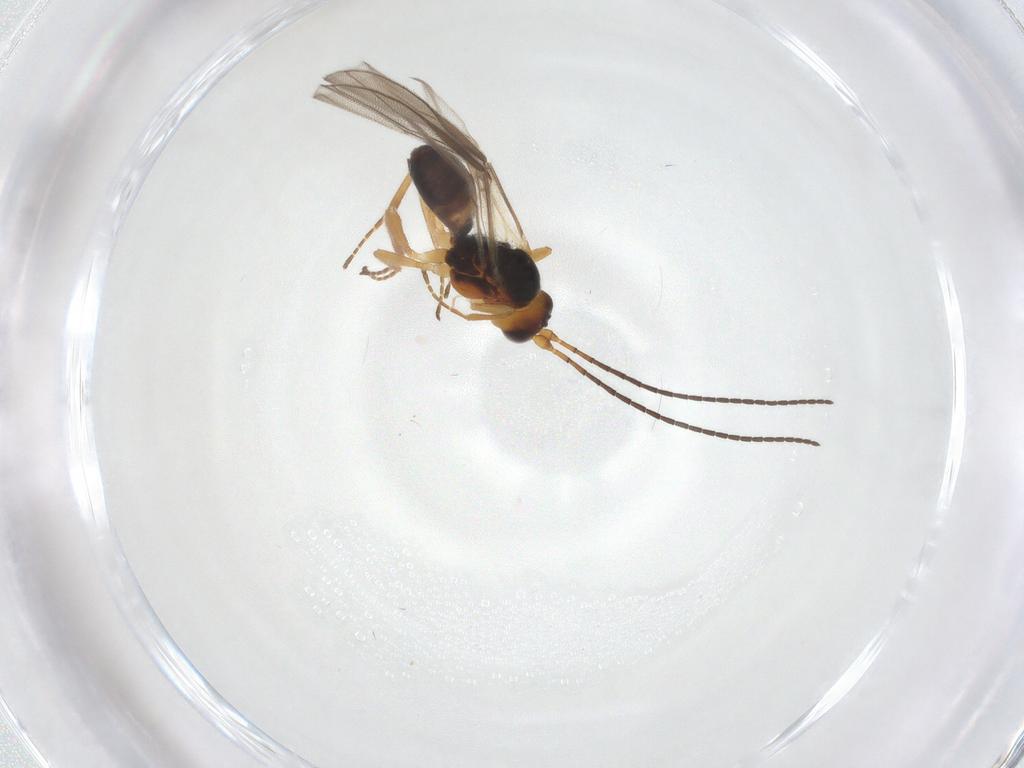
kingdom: Animalia
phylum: Arthropoda
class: Insecta
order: Hymenoptera
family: Braconidae
